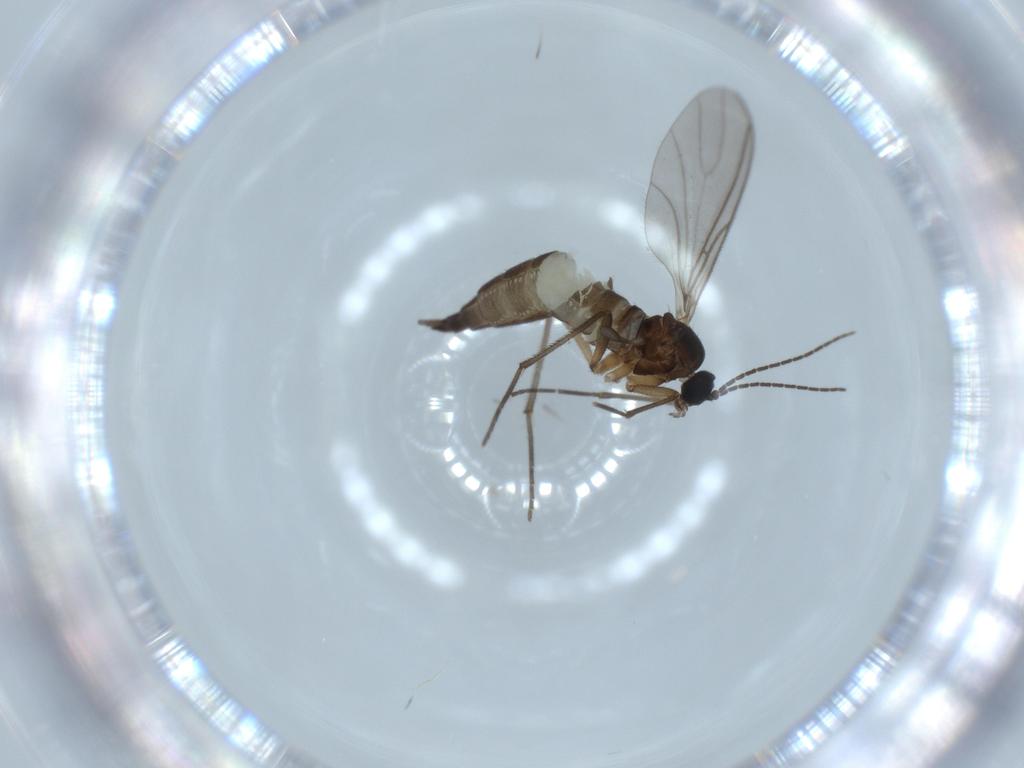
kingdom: Animalia
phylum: Arthropoda
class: Insecta
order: Diptera
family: Sciaridae
